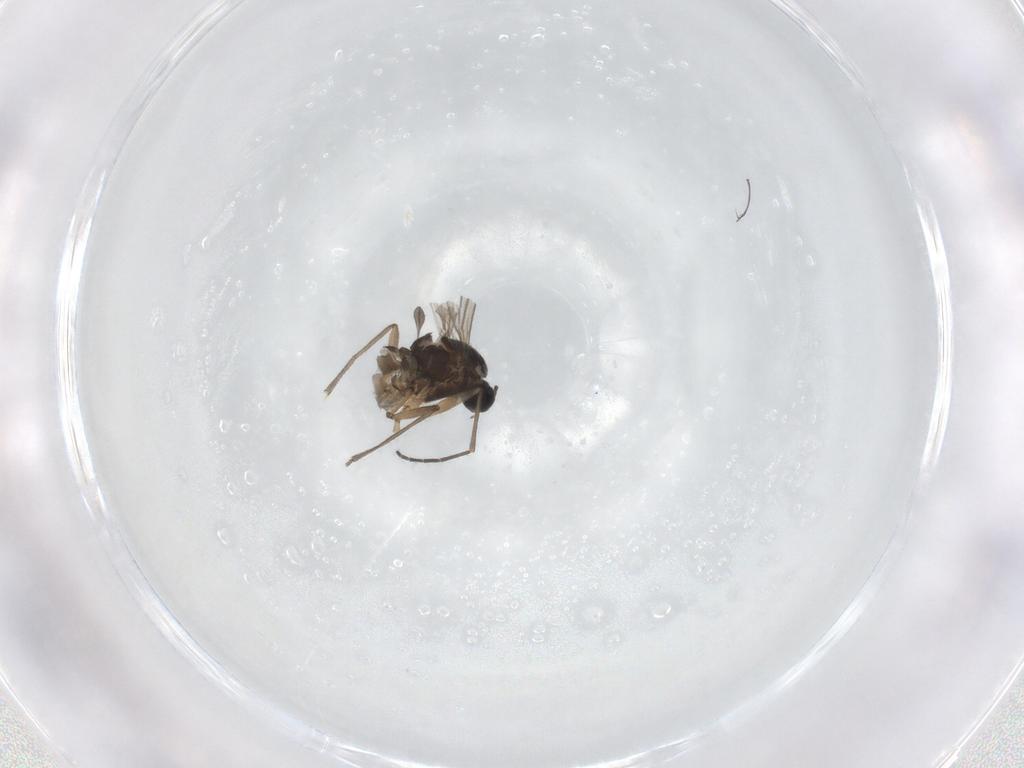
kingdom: Animalia
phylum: Arthropoda
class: Insecta
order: Diptera
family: Sciaridae
